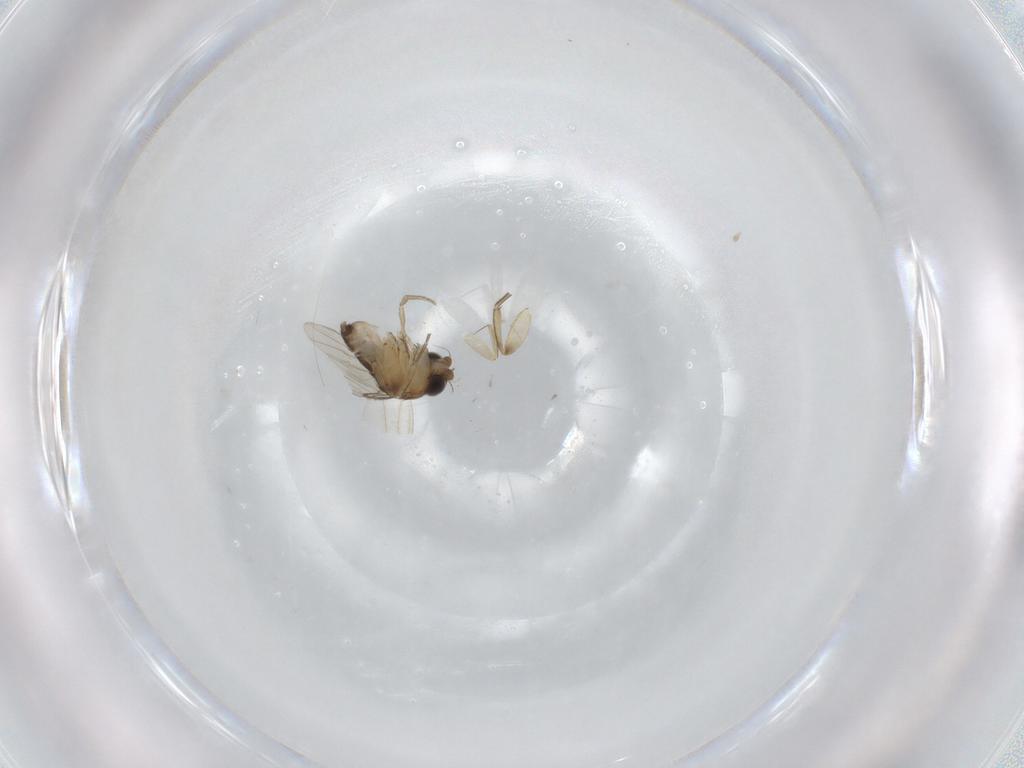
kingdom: Animalia
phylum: Arthropoda
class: Insecta
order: Diptera
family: Phoridae
